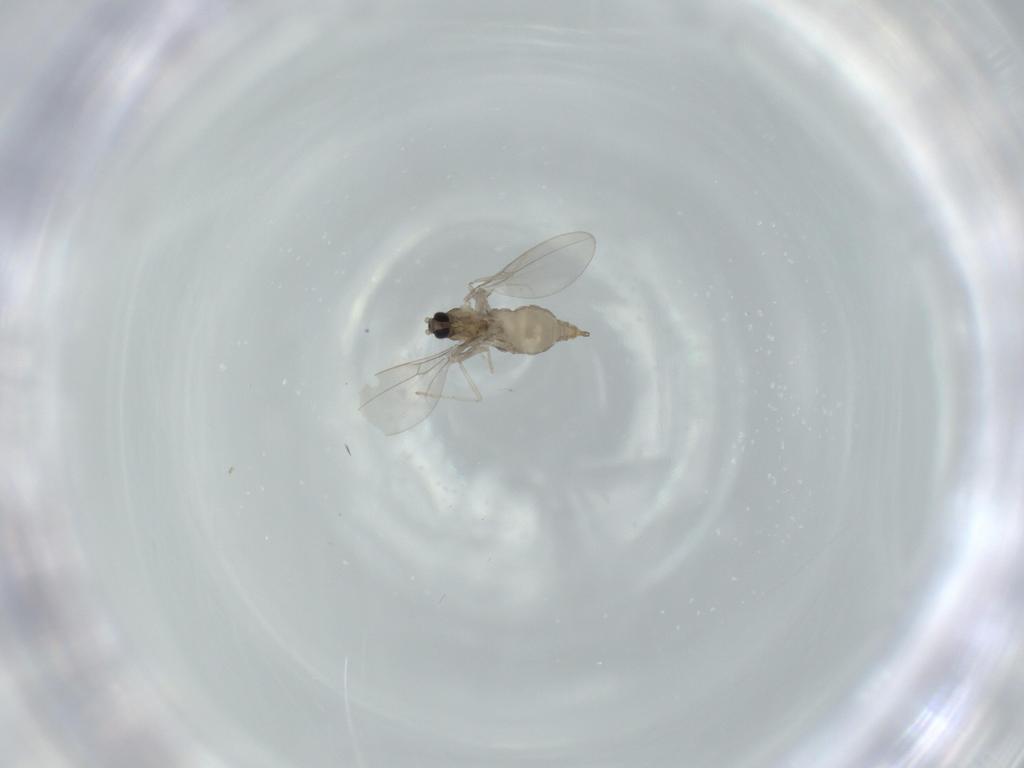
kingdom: Animalia
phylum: Arthropoda
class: Insecta
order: Diptera
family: Cecidomyiidae
